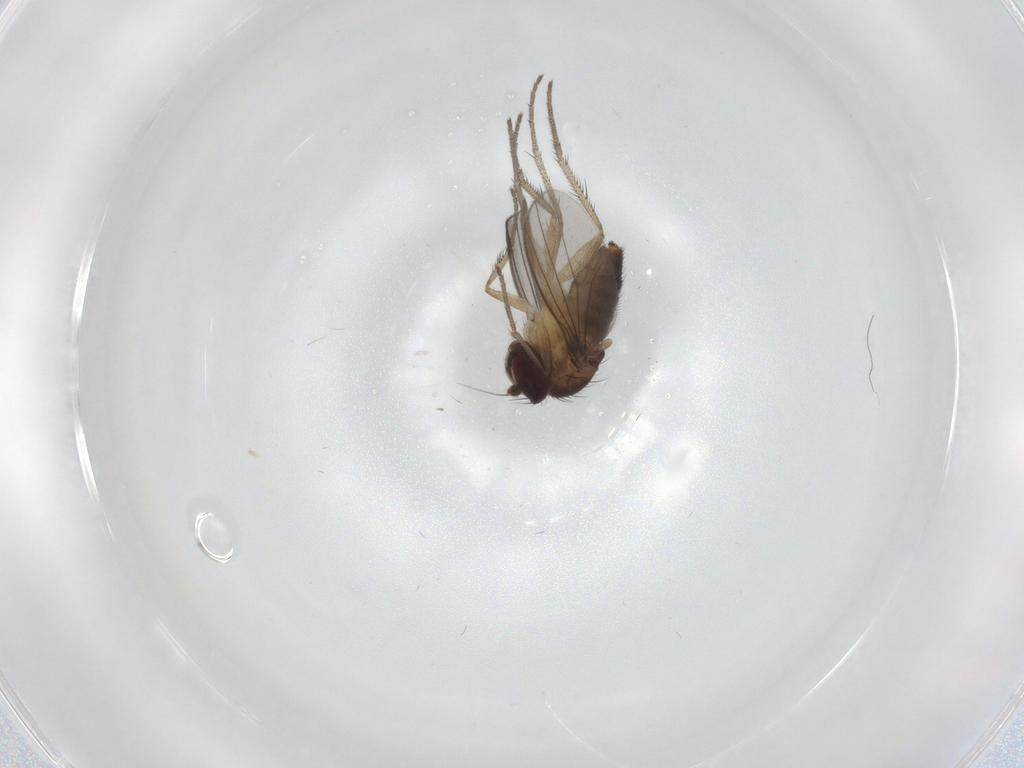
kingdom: Animalia
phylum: Arthropoda
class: Insecta
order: Diptera
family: Dolichopodidae
